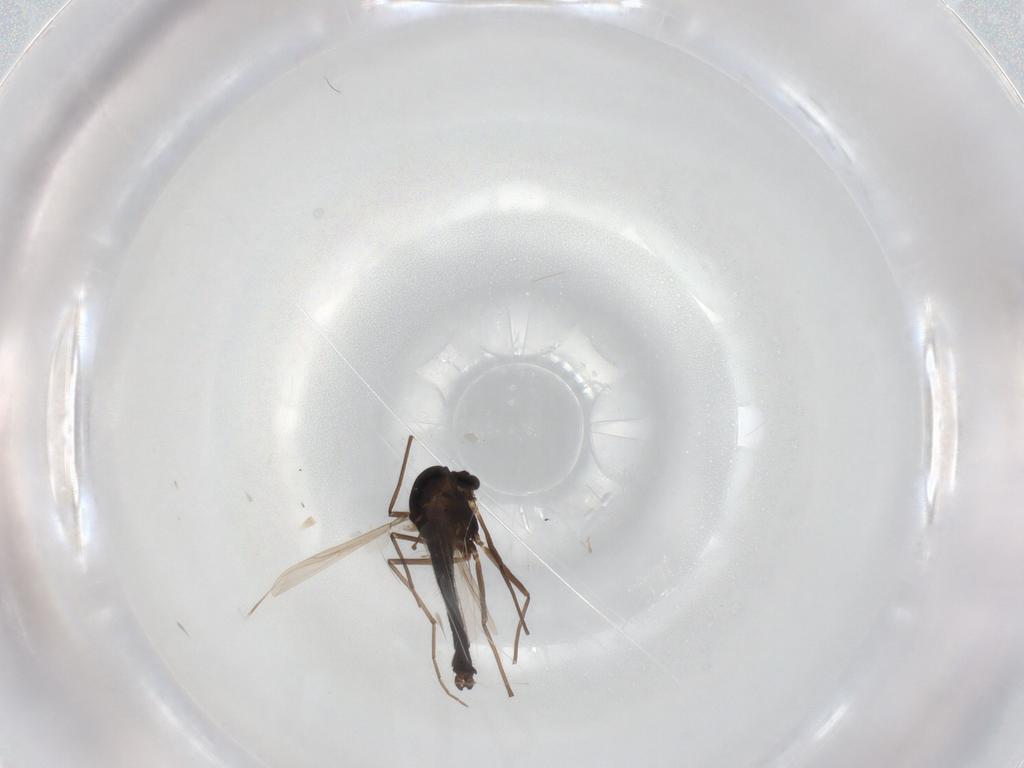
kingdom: Animalia
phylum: Arthropoda
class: Insecta
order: Diptera
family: Chironomidae
